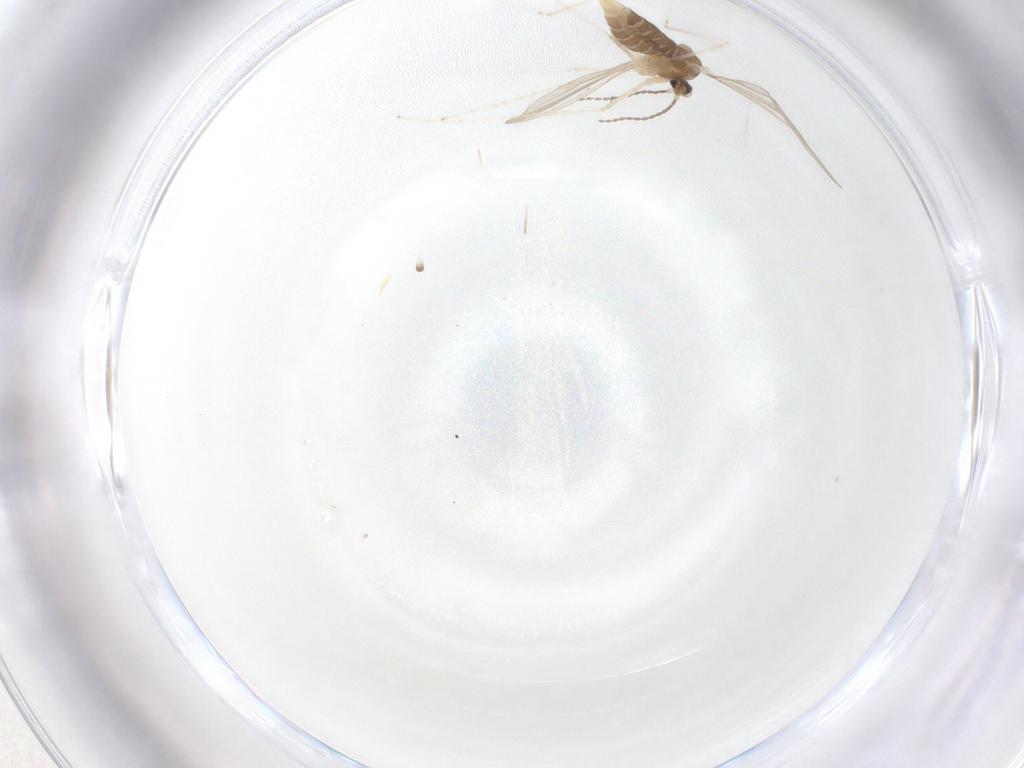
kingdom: Animalia
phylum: Arthropoda
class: Insecta
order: Diptera
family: Cecidomyiidae
